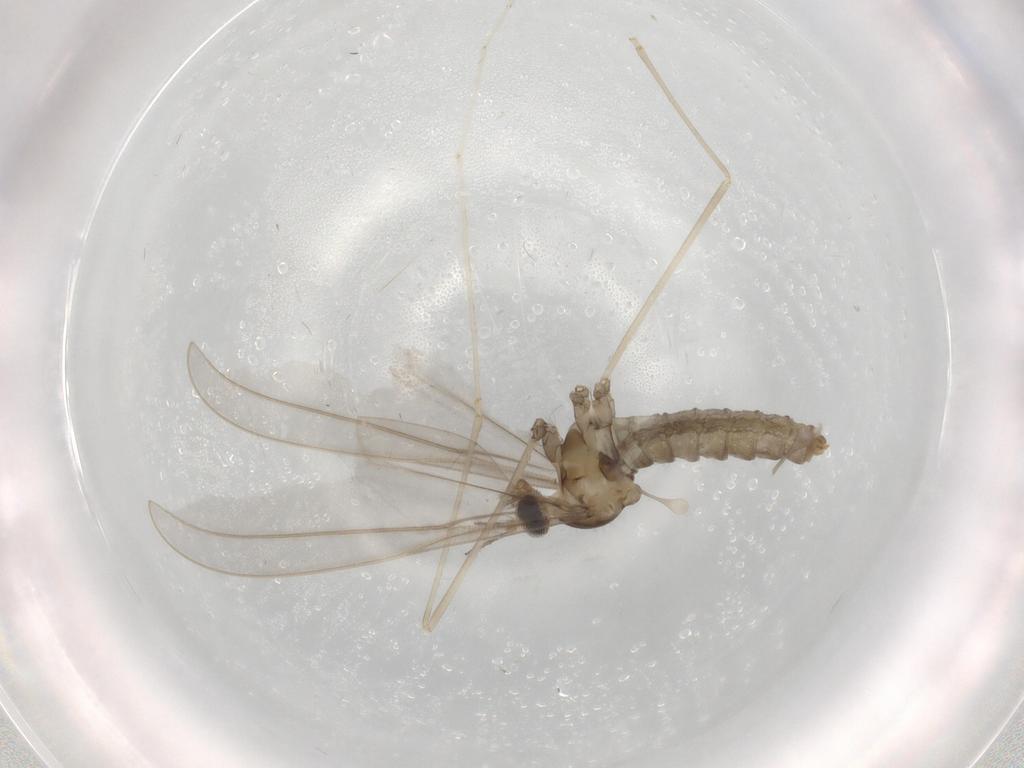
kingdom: Animalia
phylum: Arthropoda
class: Insecta
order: Diptera
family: Cecidomyiidae
